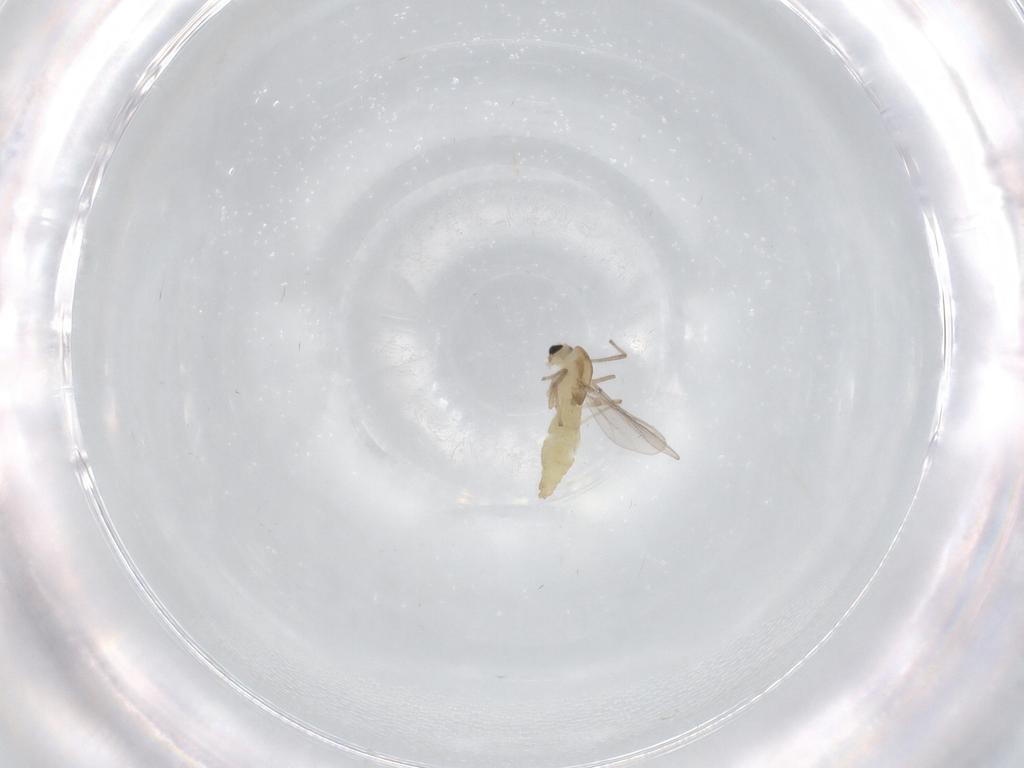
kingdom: Animalia
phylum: Arthropoda
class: Insecta
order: Diptera
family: Chironomidae
